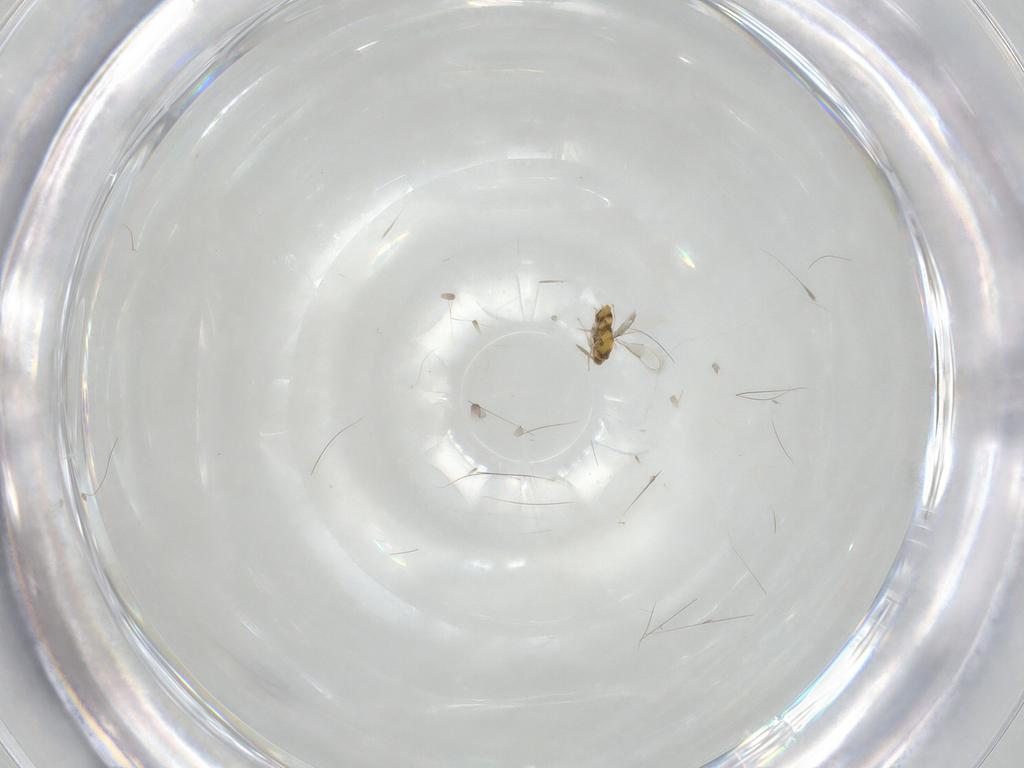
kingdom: Animalia
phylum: Arthropoda
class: Insecta
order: Hymenoptera
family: Aphelinidae
